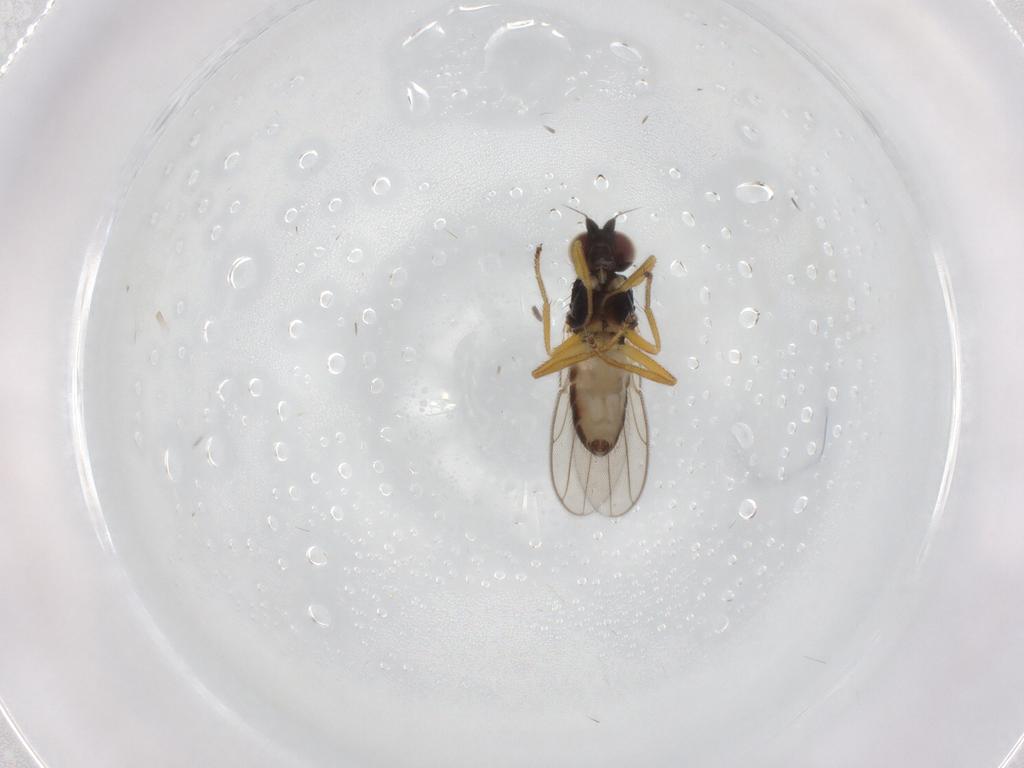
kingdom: Animalia
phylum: Arthropoda
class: Insecta
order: Diptera
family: Chloropidae
